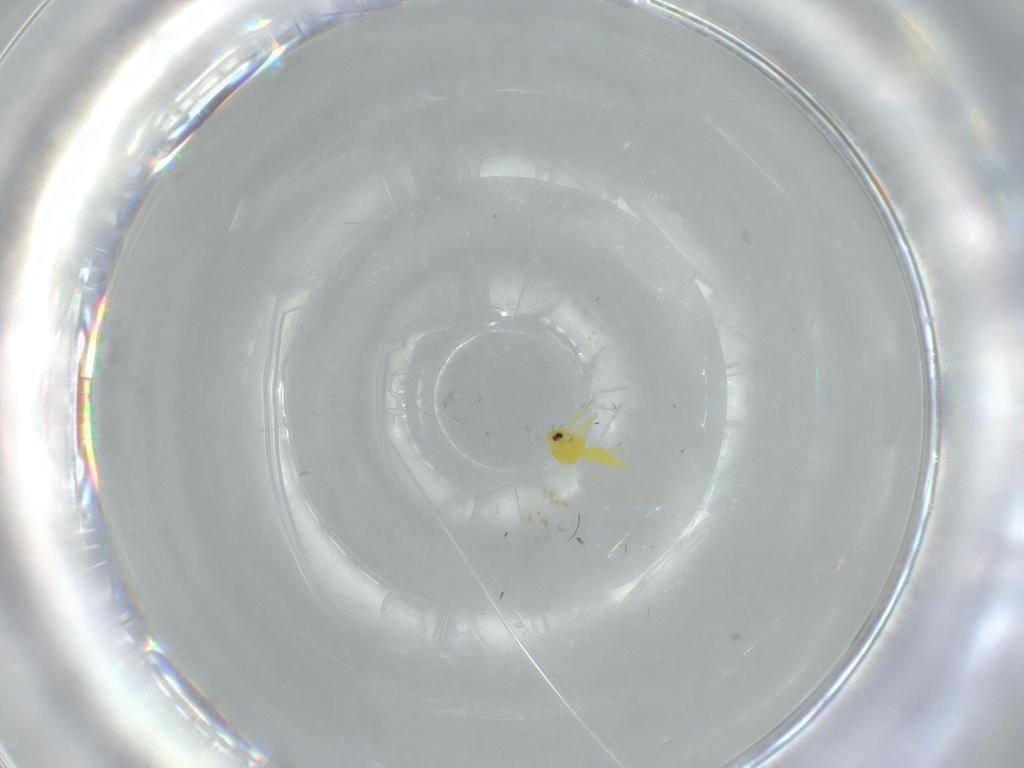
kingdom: Animalia
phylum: Arthropoda
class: Insecta
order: Hemiptera
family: Aleyrodidae
